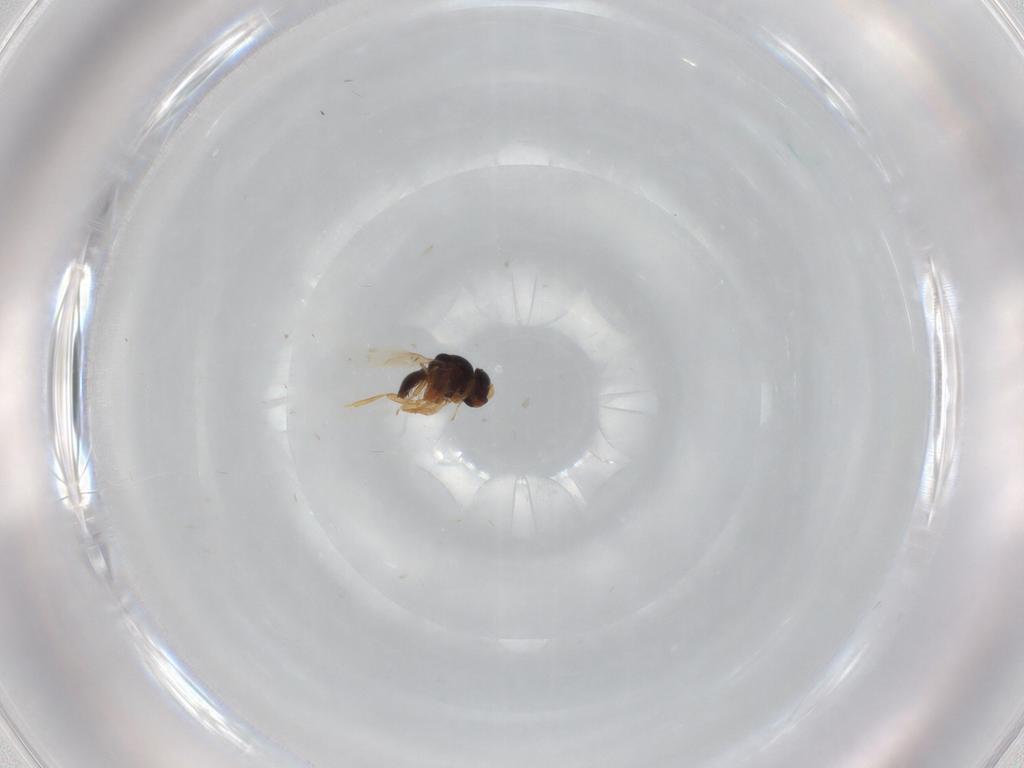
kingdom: Animalia
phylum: Arthropoda
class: Insecta
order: Hymenoptera
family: Scelionidae
